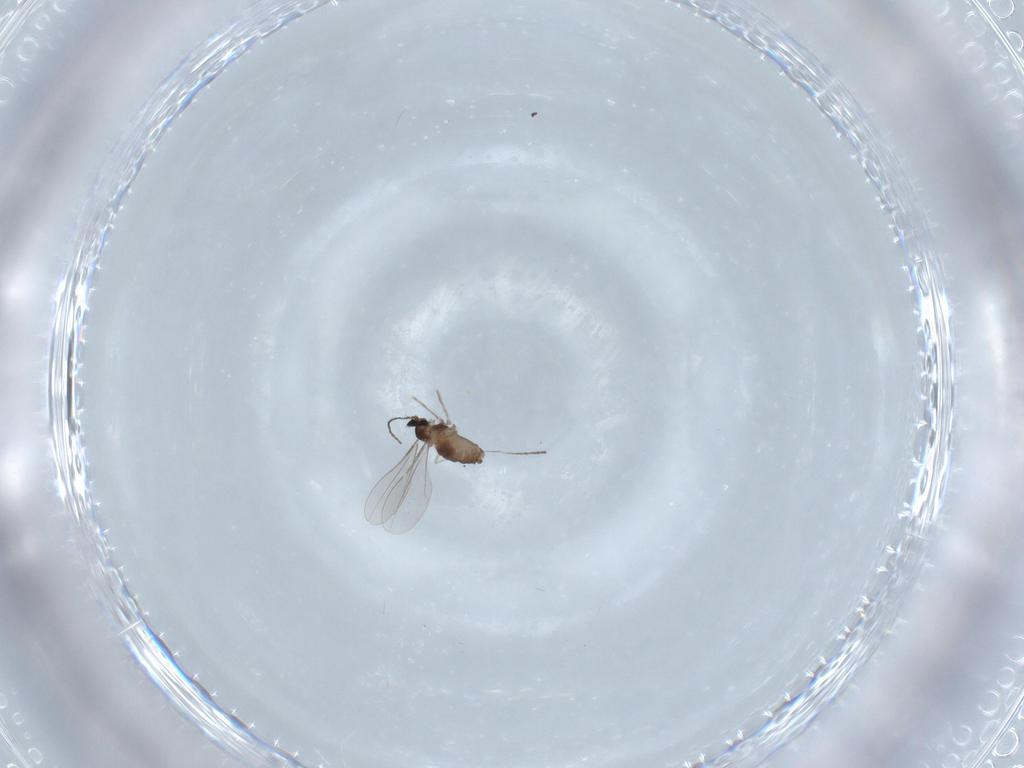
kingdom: Animalia
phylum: Arthropoda
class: Insecta
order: Diptera
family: Cecidomyiidae
